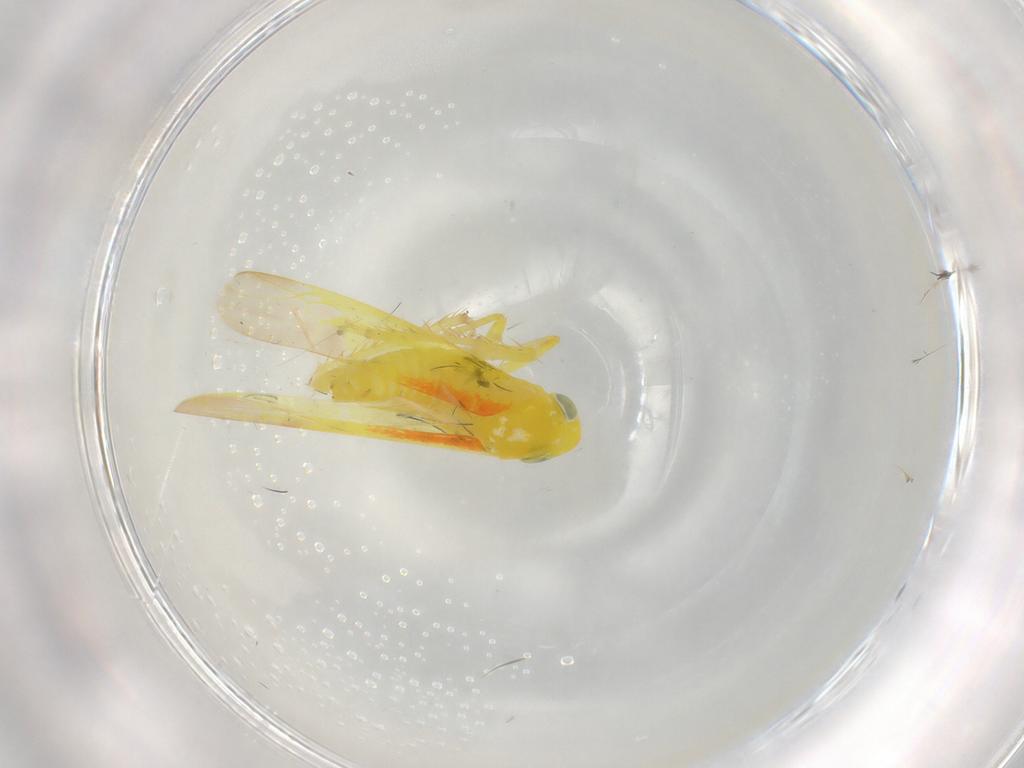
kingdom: Animalia
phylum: Arthropoda
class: Insecta
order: Hemiptera
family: Cicadellidae
